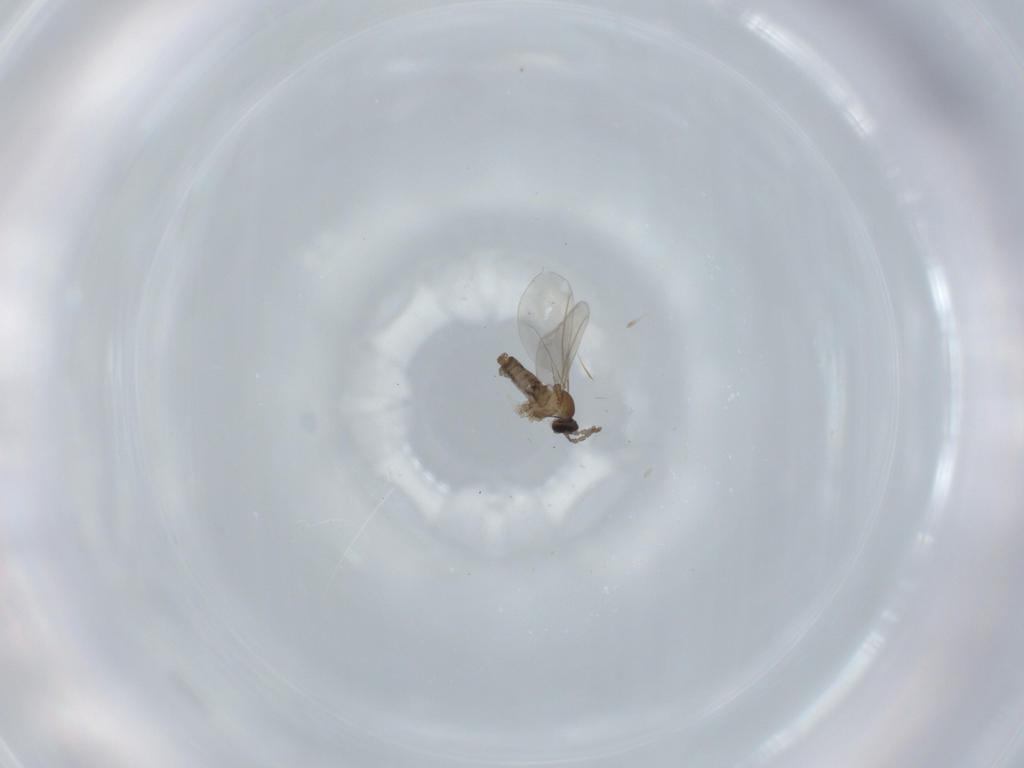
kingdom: Animalia
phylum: Arthropoda
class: Insecta
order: Diptera
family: Cecidomyiidae
